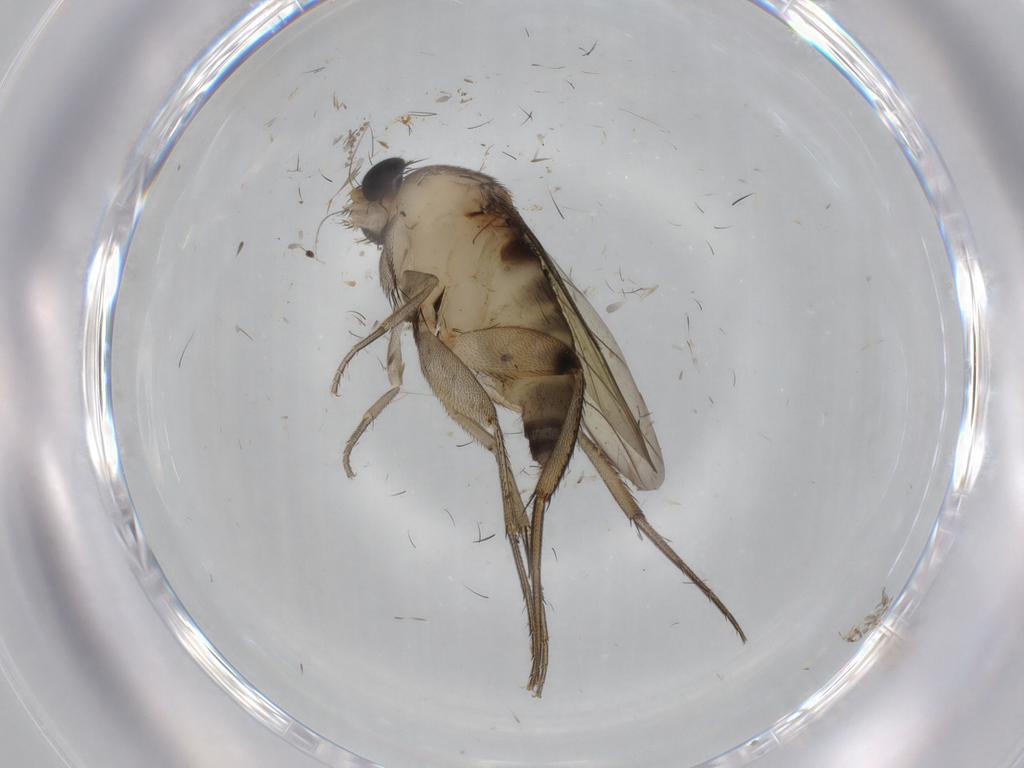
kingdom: Animalia
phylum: Arthropoda
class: Insecta
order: Diptera
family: Phoridae
